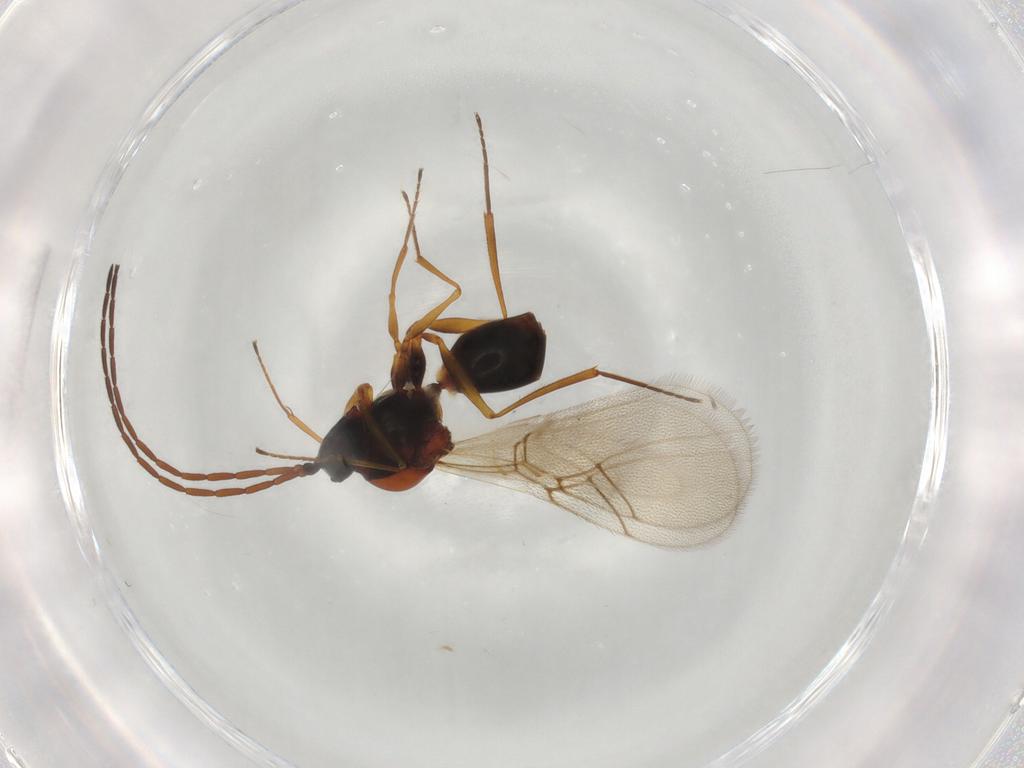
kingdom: Animalia
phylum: Arthropoda
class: Insecta
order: Hymenoptera
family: Figitidae
